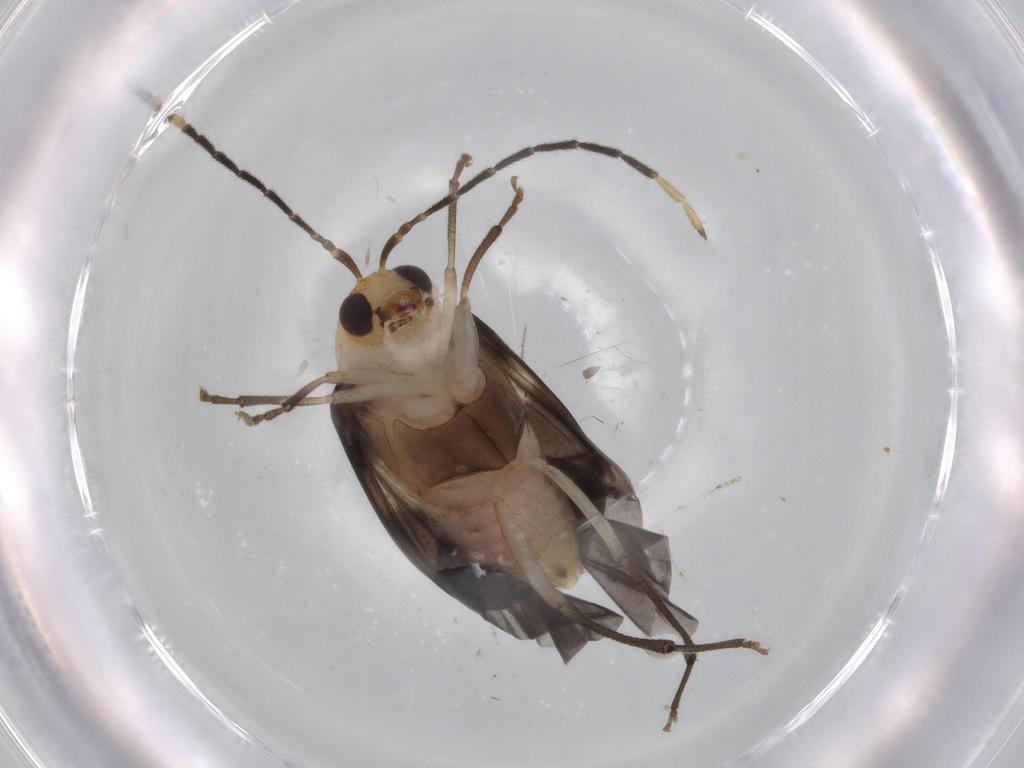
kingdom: Animalia
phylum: Arthropoda
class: Insecta
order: Coleoptera
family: Chrysomelidae
